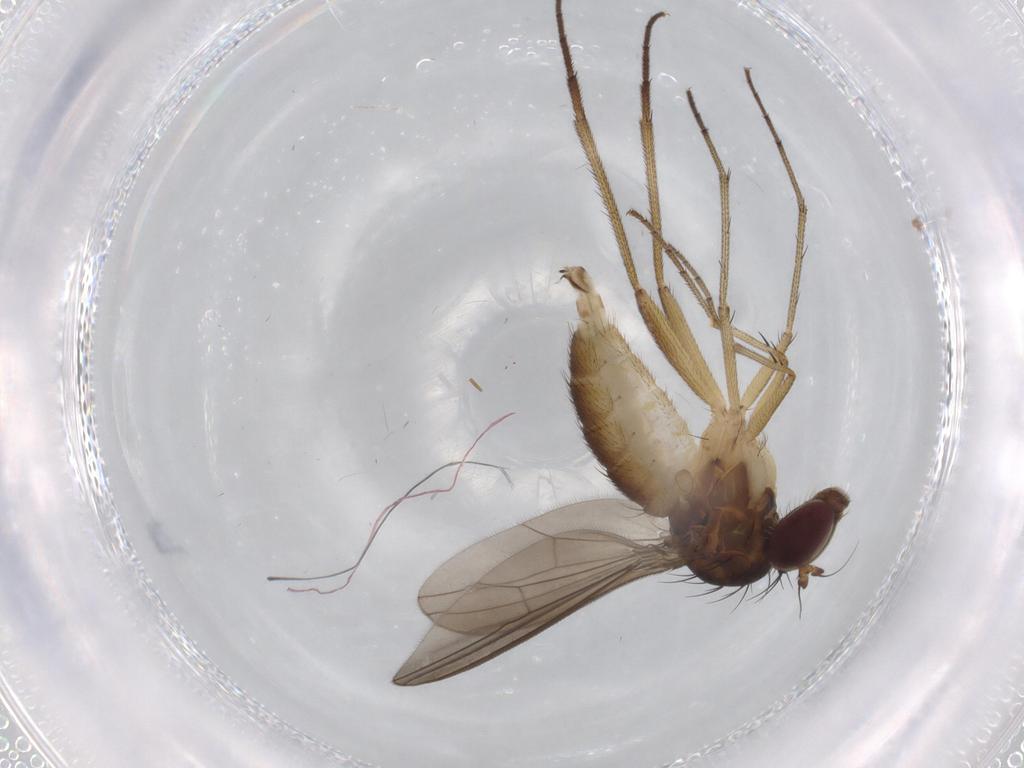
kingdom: Animalia
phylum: Arthropoda
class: Insecta
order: Diptera
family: Dolichopodidae
